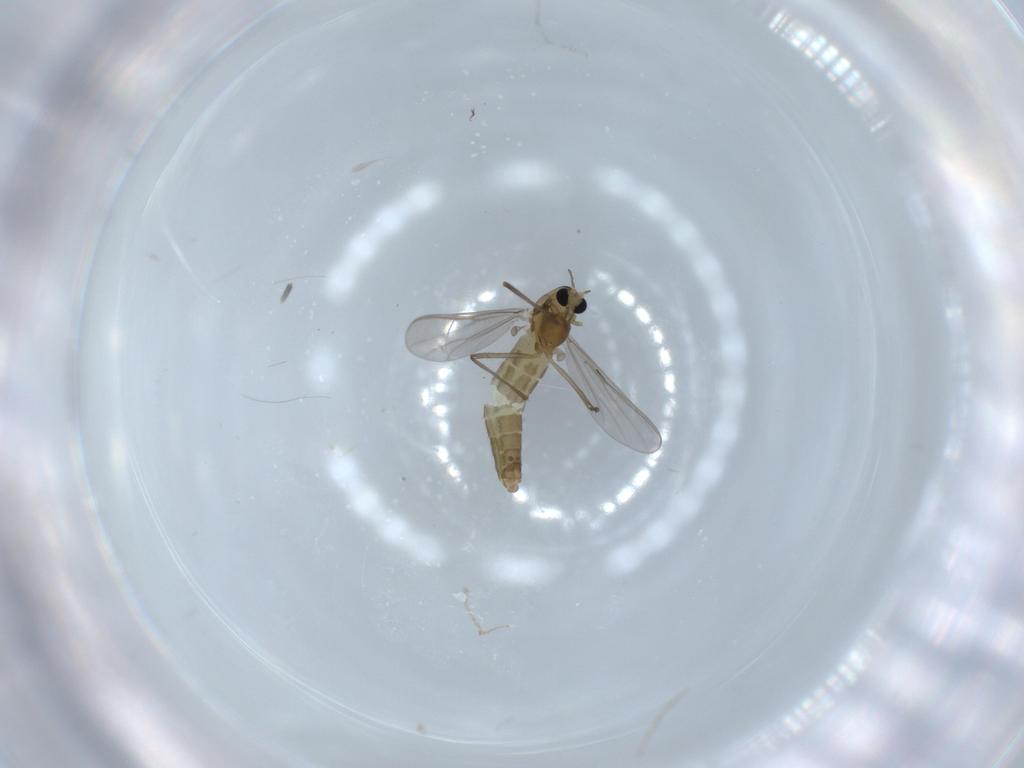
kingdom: Animalia
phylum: Arthropoda
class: Insecta
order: Diptera
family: Chironomidae
